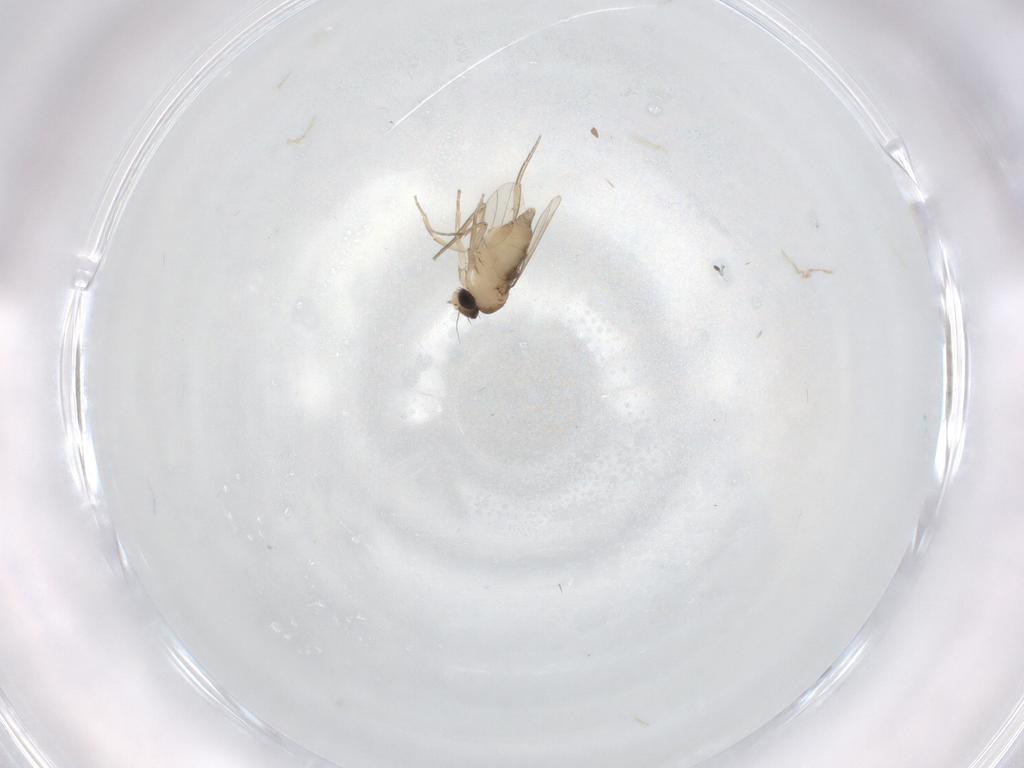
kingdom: Animalia
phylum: Arthropoda
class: Insecta
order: Diptera
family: Phoridae
